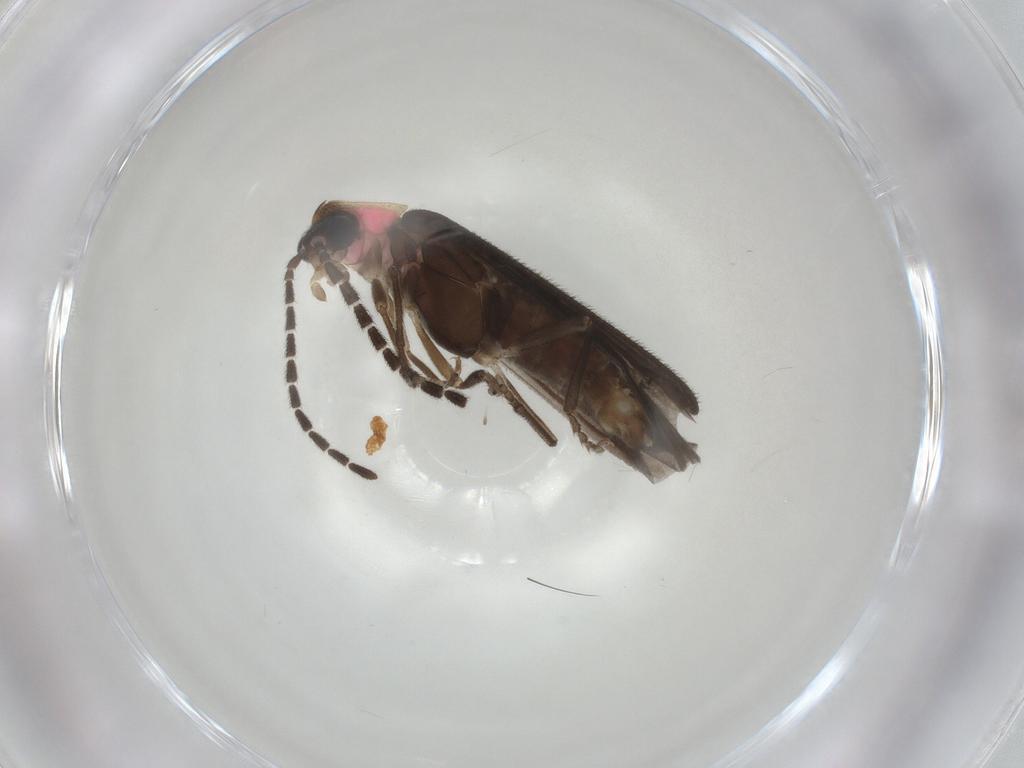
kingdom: Animalia
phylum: Arthropoda
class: Insecta
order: Coleoptera
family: Lampyridae
